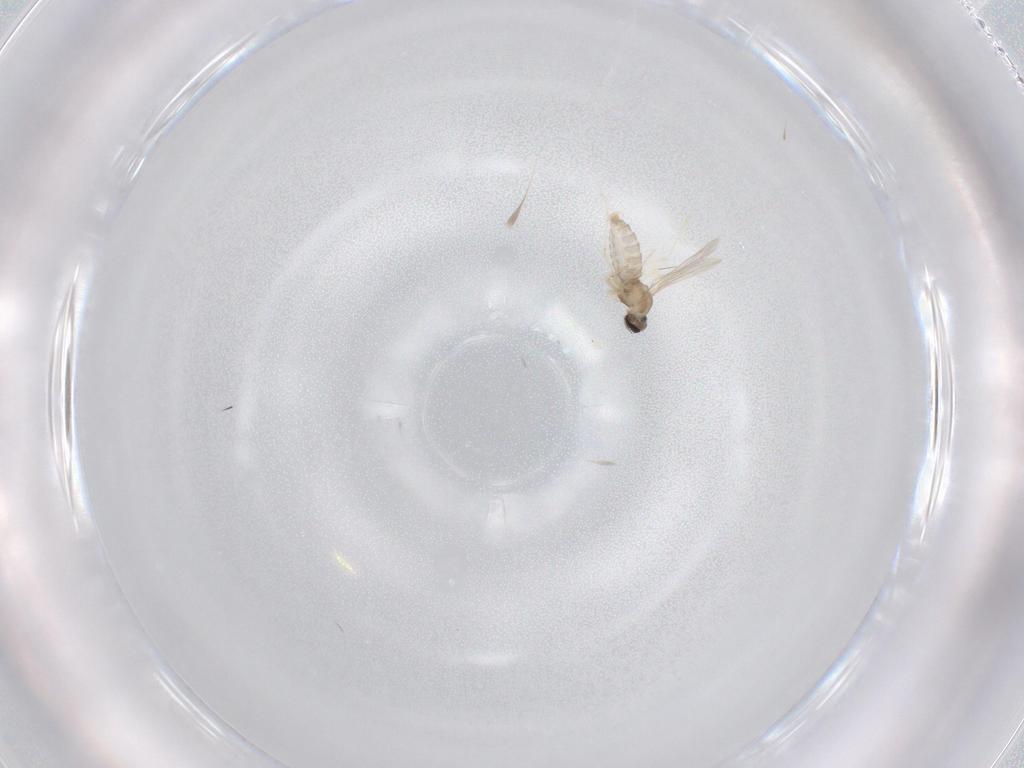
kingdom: Animalia
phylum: Arthropoda
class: Insecta
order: Diptera
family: Cecidomyiidae
